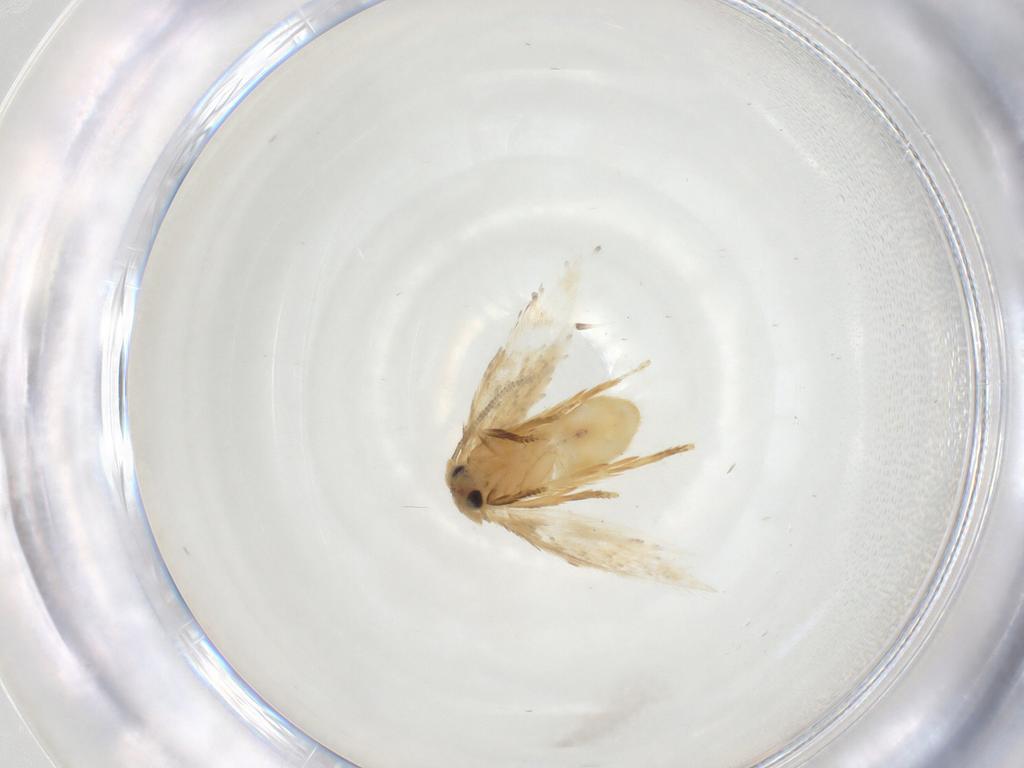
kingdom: Animalia
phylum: Arthropoda
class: Insecta
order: Lepidoptera
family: Nepticulidae
